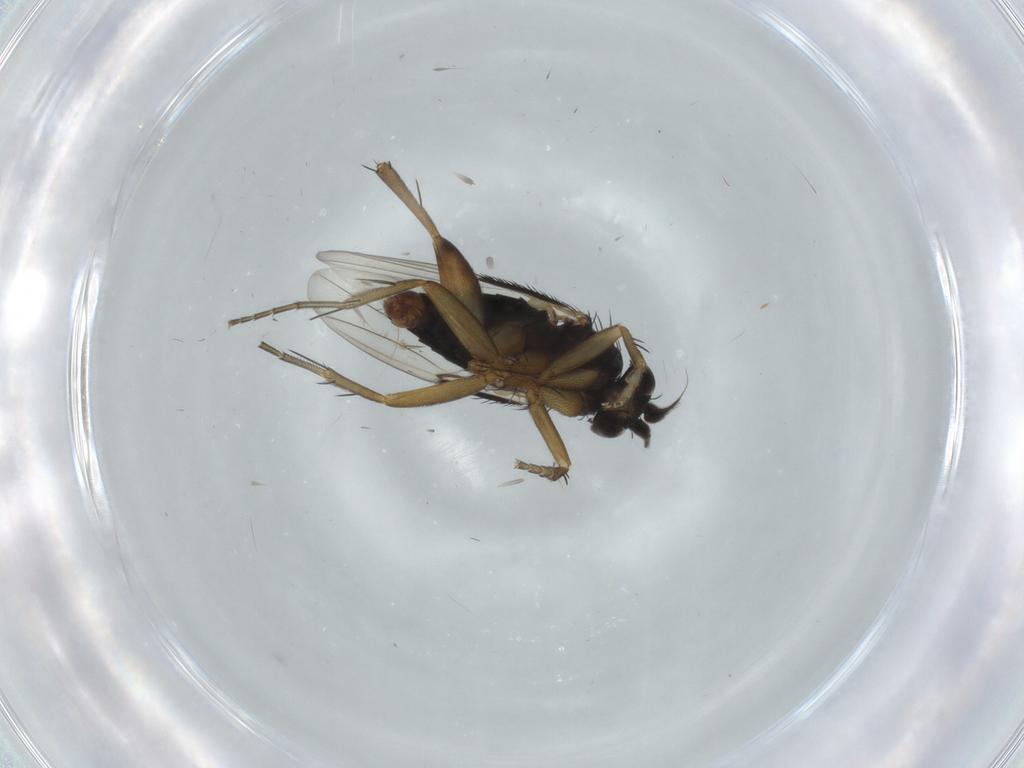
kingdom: Animalia
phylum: Arthropoda
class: Insecta
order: Diptera
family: Phoridae
